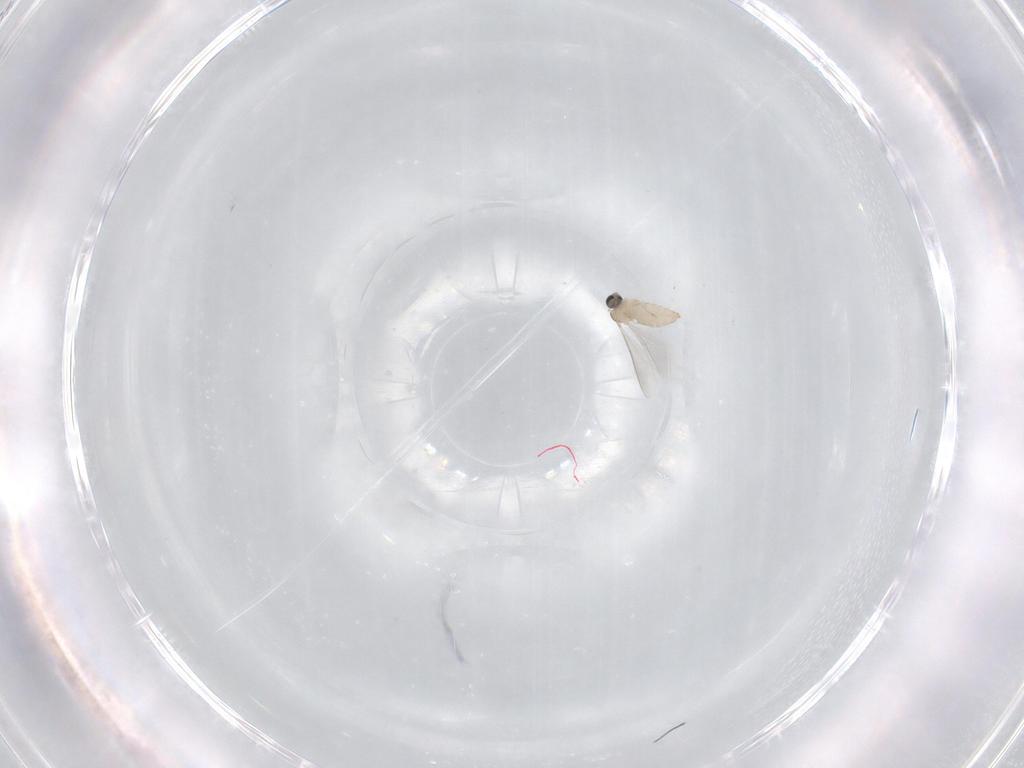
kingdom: Animalia
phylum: Arthropoda
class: Insecta
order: Diptera
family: Cecidomyiidae
